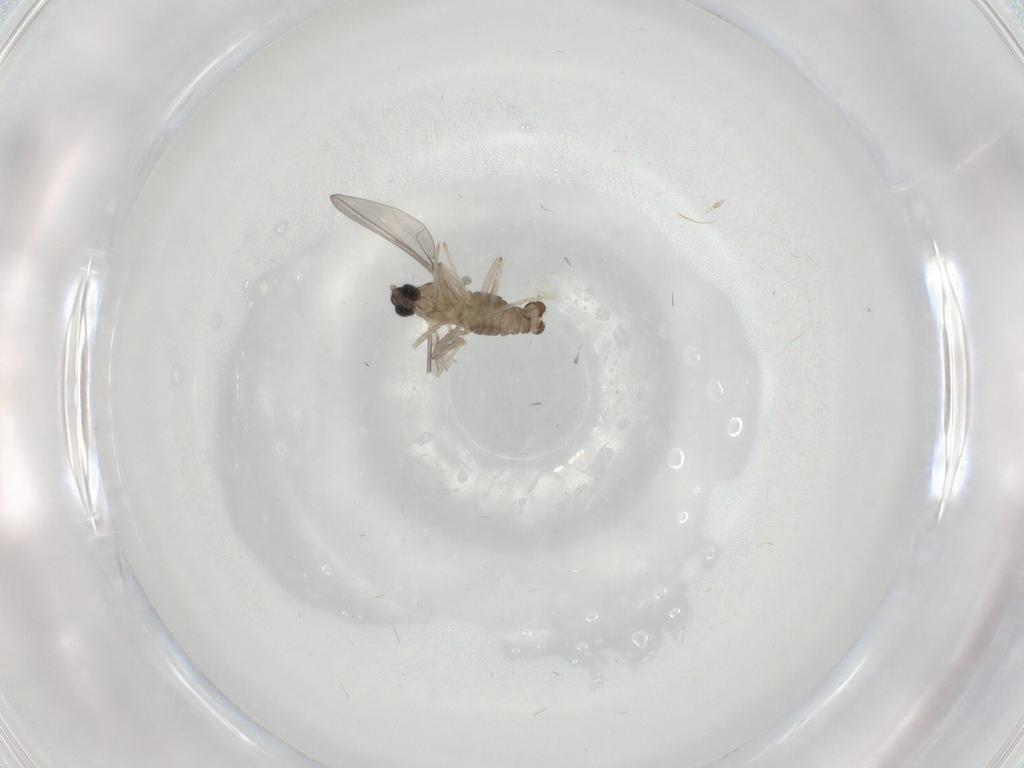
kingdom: Animalia
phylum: Arthropoda
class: Insecta
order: Diptera
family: Cecidomyiidae
